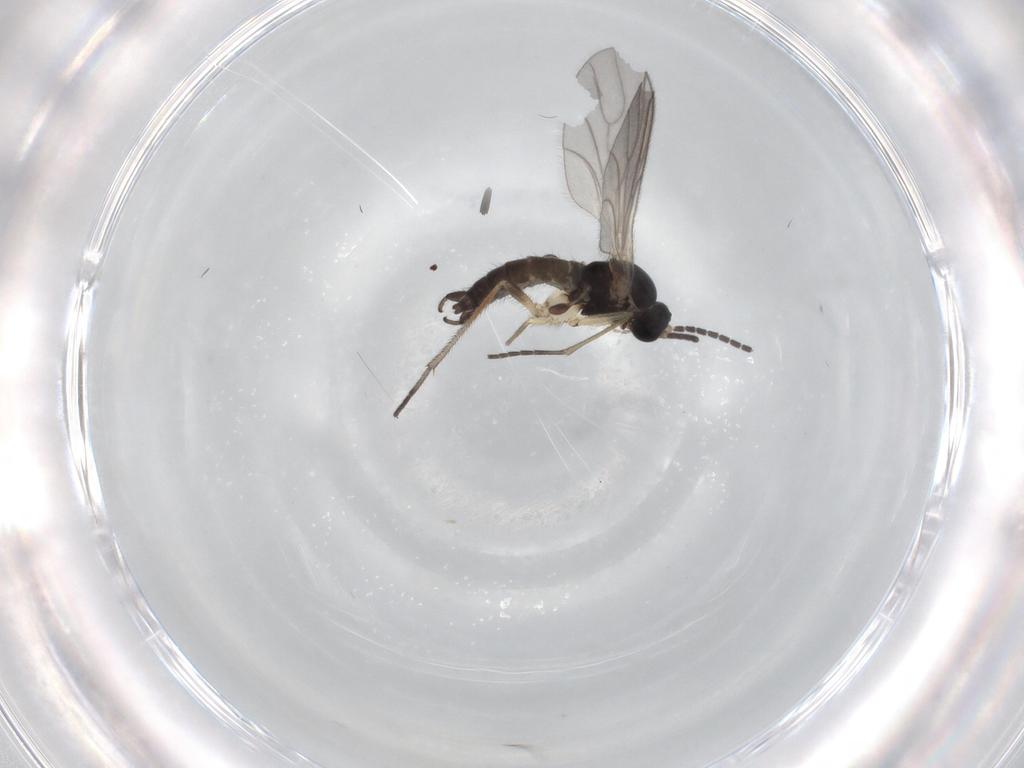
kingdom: Animalia
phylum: Arthropoda
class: Insecta
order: Diptera
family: Sciaridae
